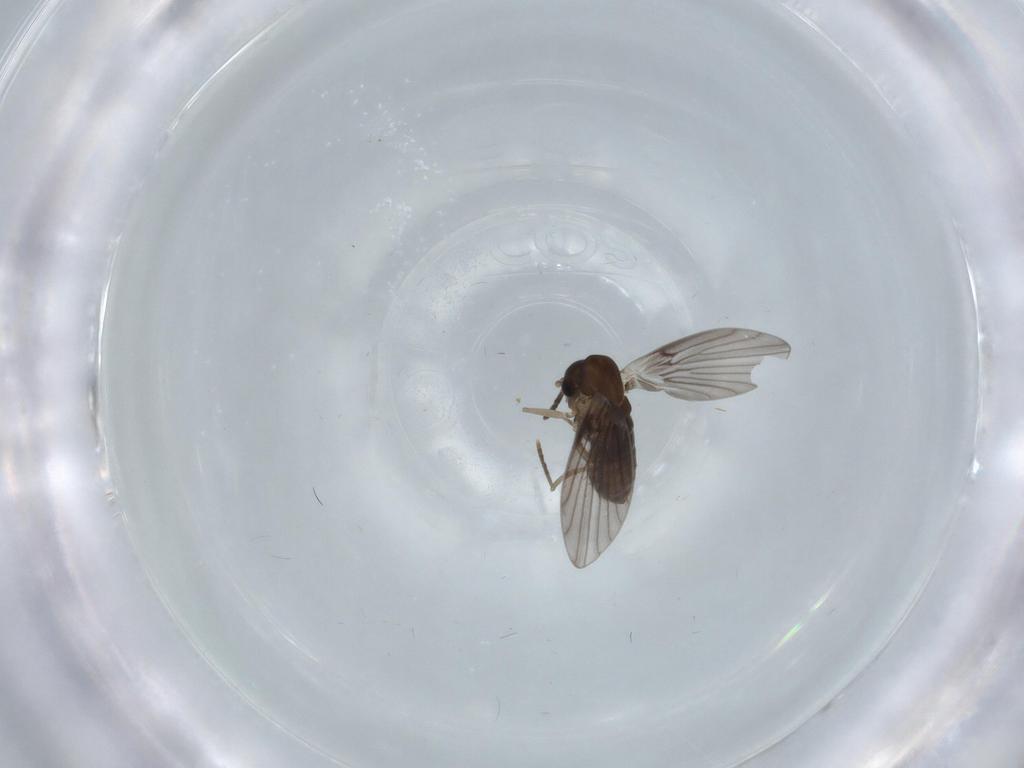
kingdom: Animalia
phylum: Arthropoda
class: Insecta
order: Diptera
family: Psychodidae
